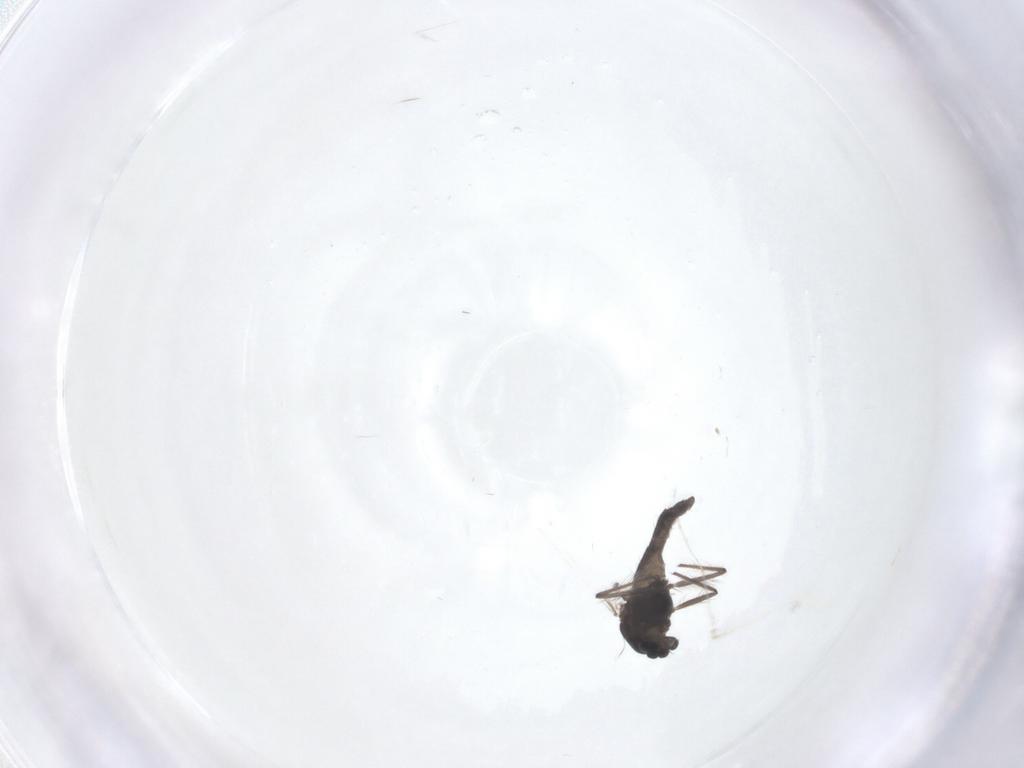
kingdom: Animalia
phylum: Arthropoda
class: Insecta
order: Diptera
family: Chironomidae
